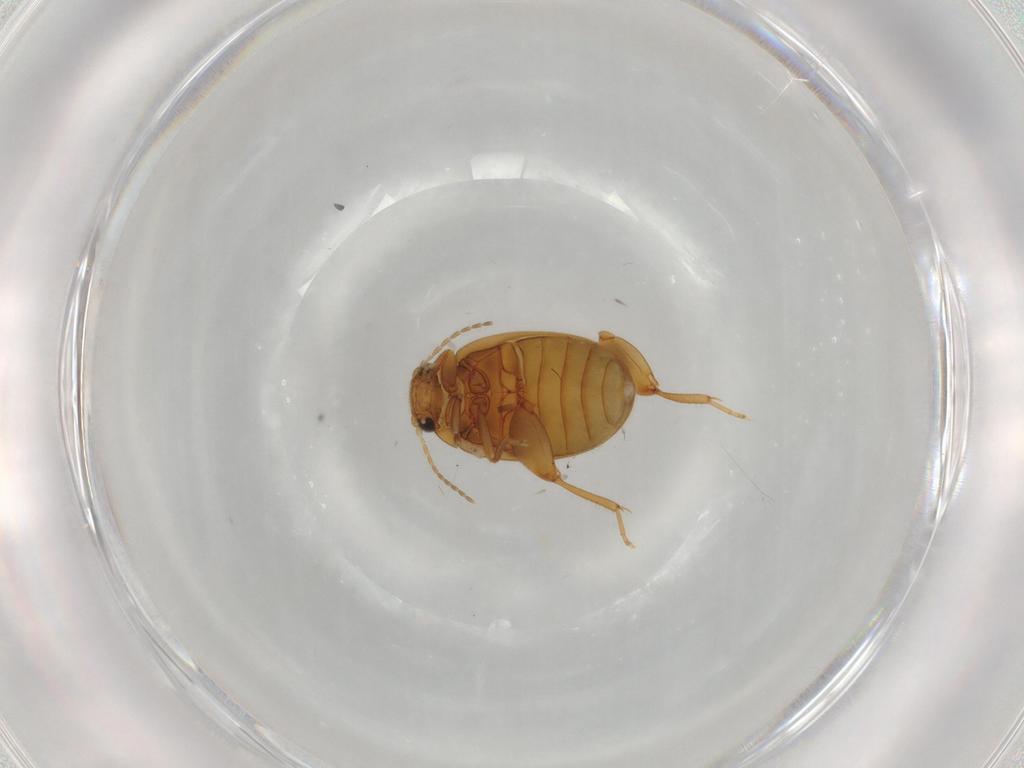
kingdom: Animalia
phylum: Arthropoda
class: Insecta
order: Coleoptera
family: Scirtidae
